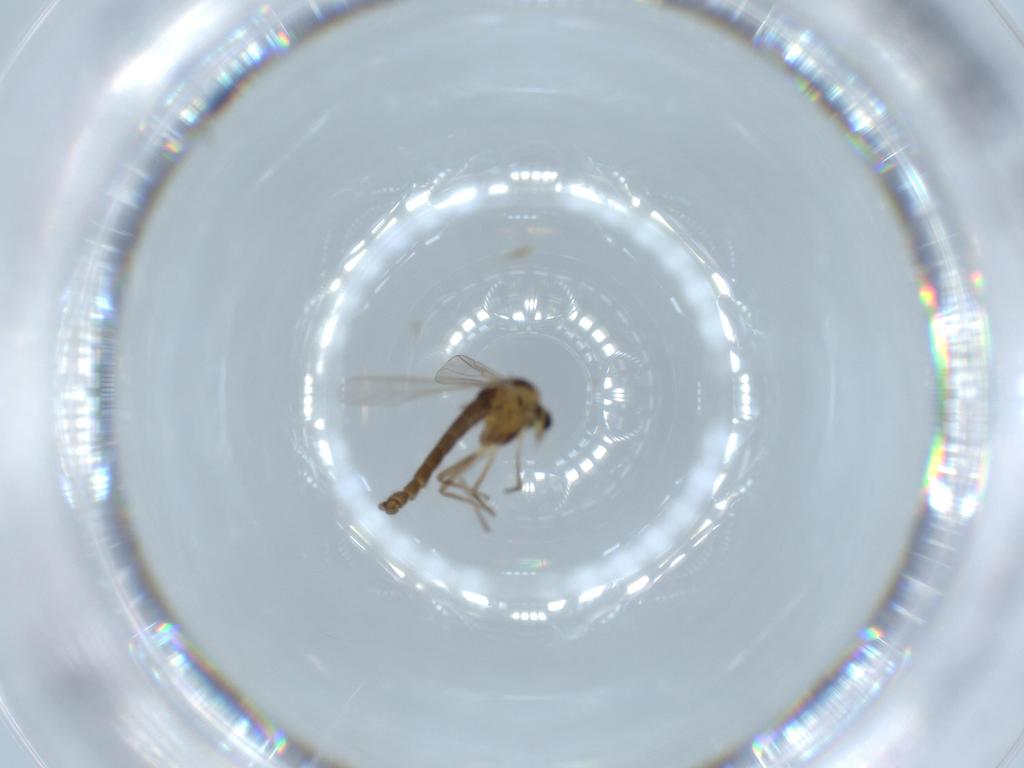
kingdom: Animalia
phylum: Arthropoda
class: Insecta
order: Diptera
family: Chironomidae
